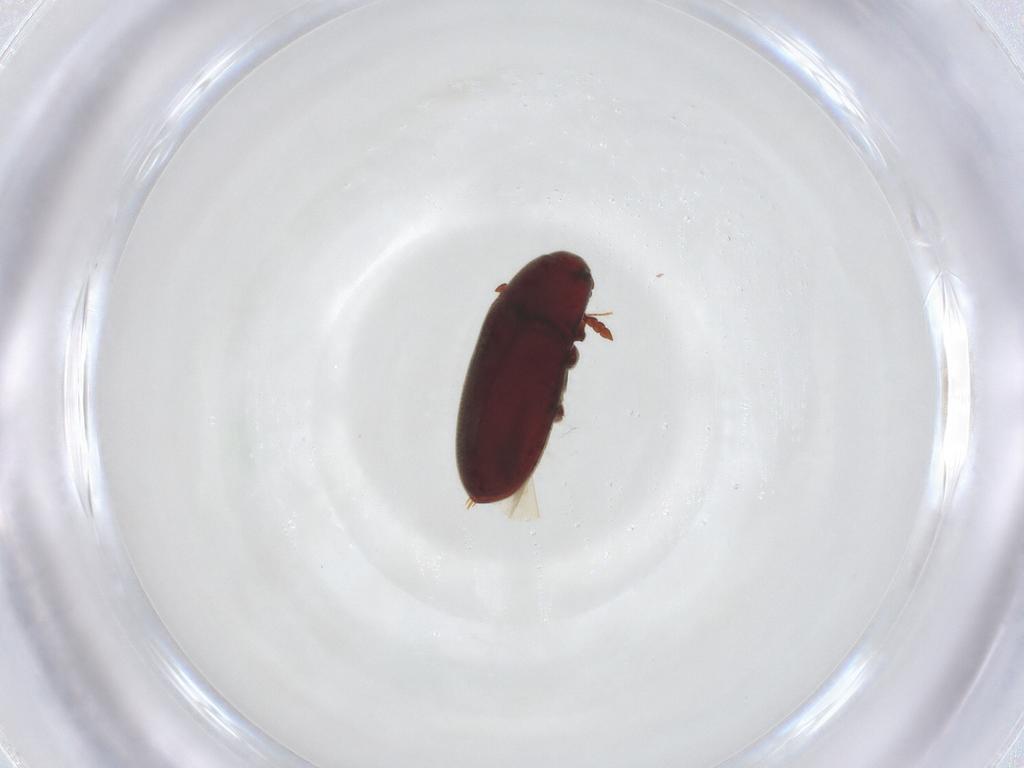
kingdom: Animalia
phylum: Arthropoda
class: Insecta
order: Coleoptera
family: Throscidae
